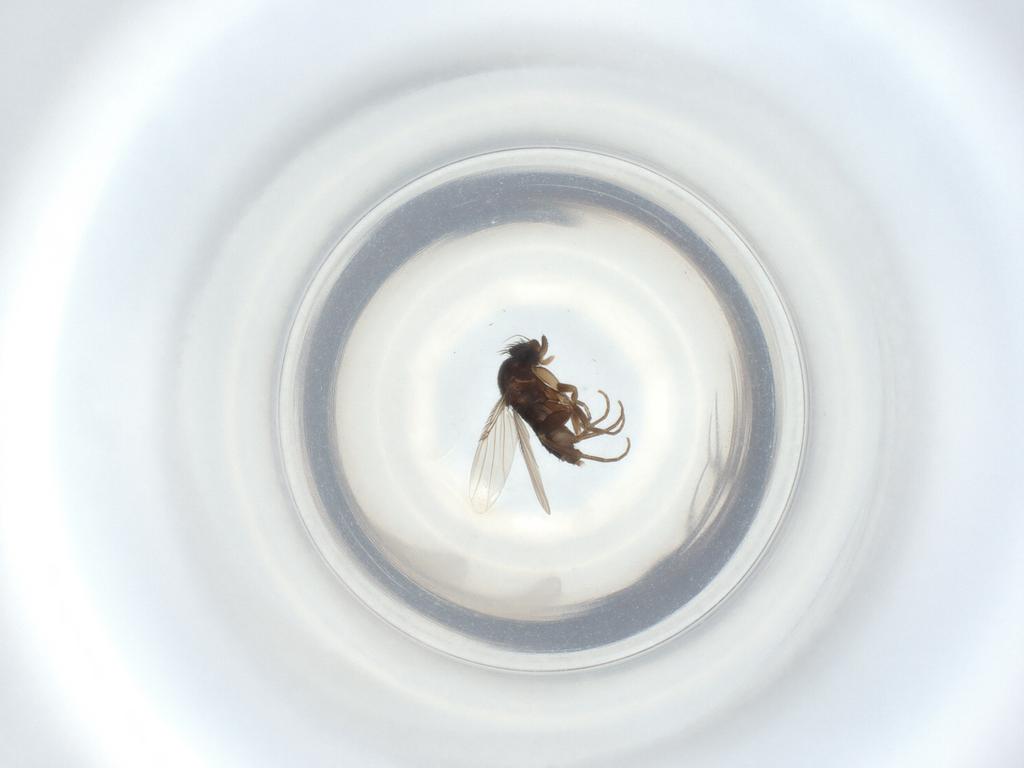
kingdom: Animalia
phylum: Arthropoda
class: Insecta
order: Diptera
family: Phoridae
